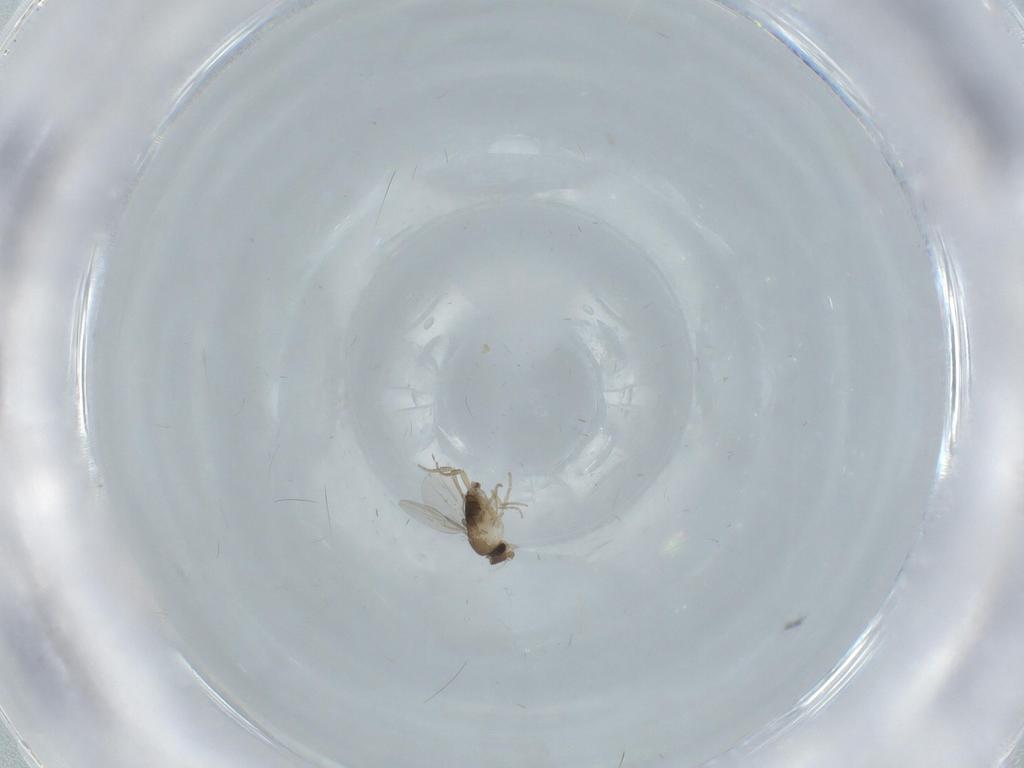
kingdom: Animalia
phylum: Arthropoda
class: Insecta
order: Diptera
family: Phoridae
